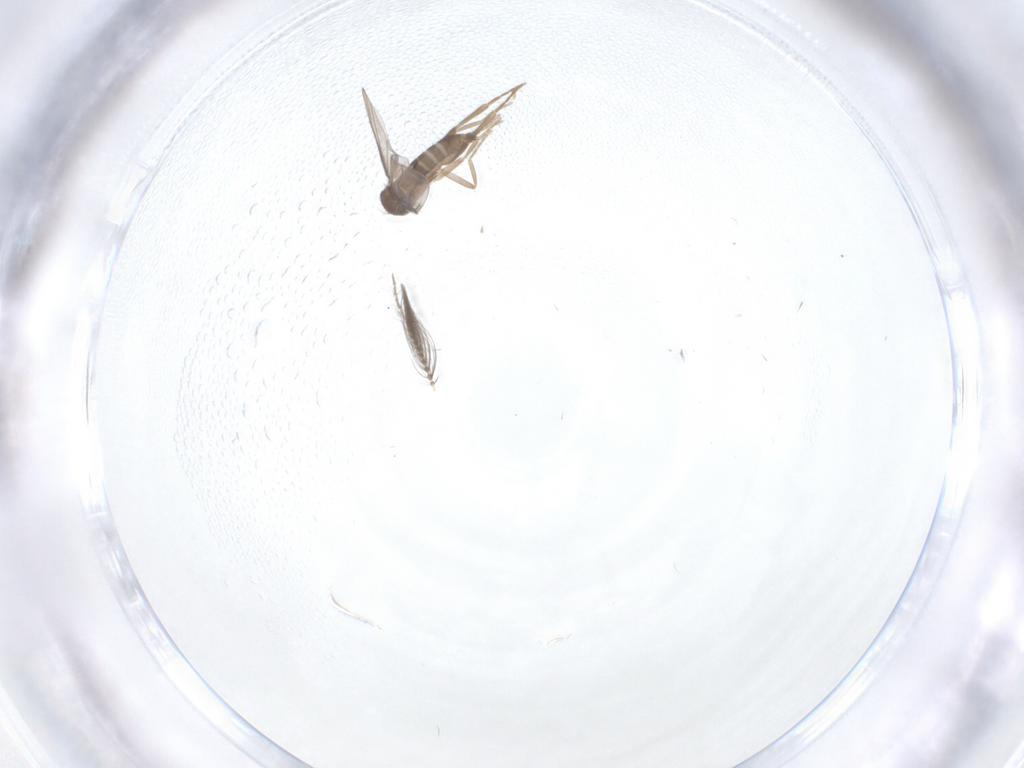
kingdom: Animalia
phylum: Arthropoda
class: Insecta
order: Diptera
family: Ceratopogonidae
